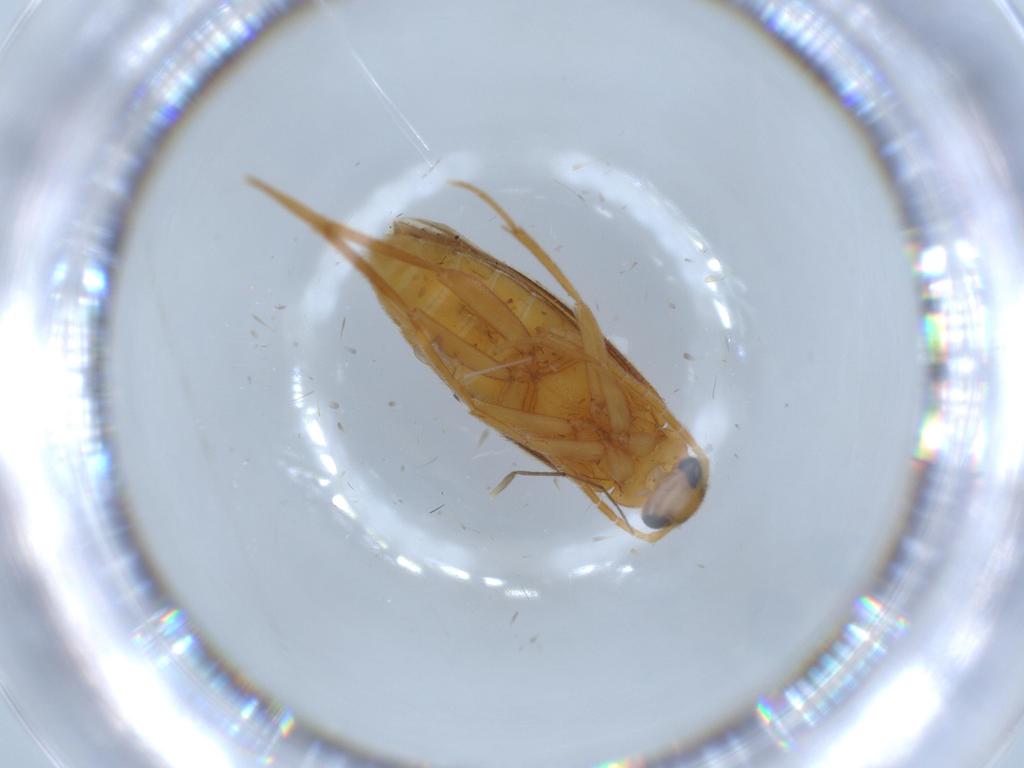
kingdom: Animalia
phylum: Arthropoda
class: Insecta
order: Coleoptera
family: Scraptiidae
